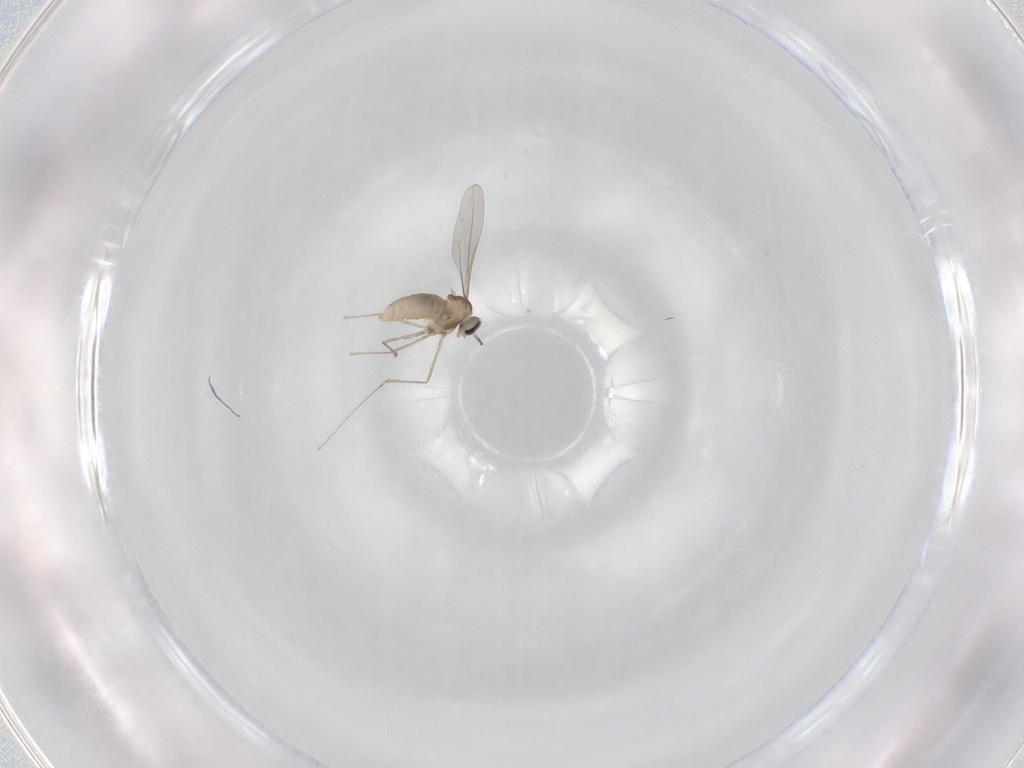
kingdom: Animalia
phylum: Arthropoda
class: Insecta
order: Diptera
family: Cecidomyiidae
